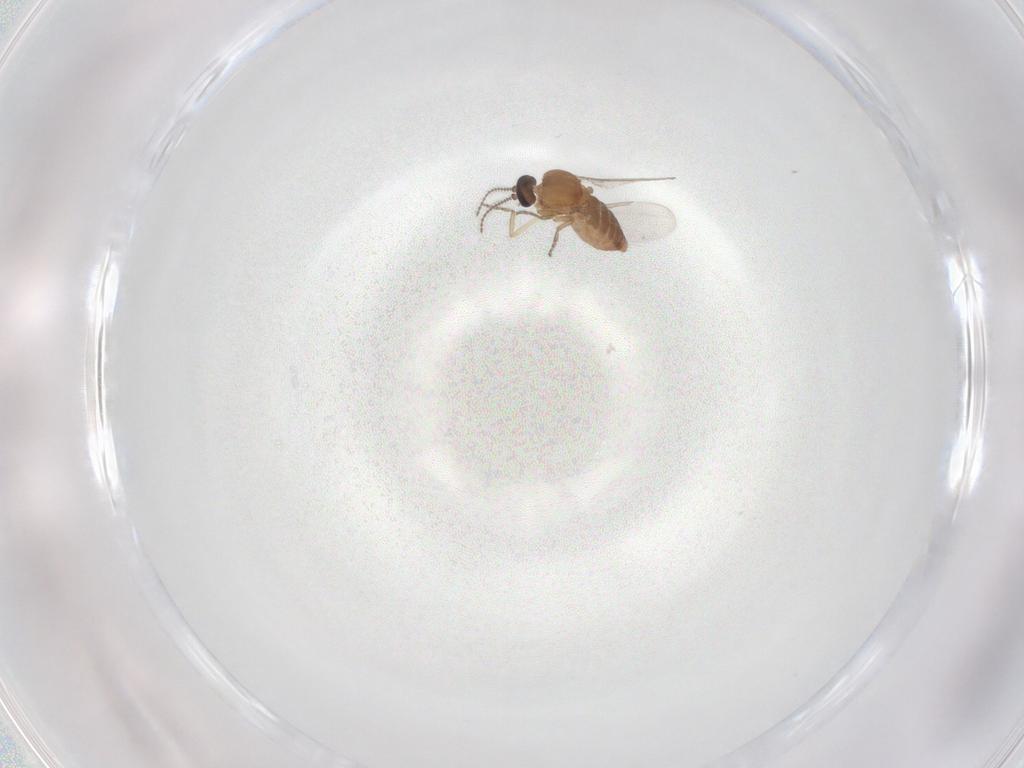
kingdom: Animalia
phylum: Arthropoda
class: Insecta
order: Diptera
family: Ceratopogonidae
